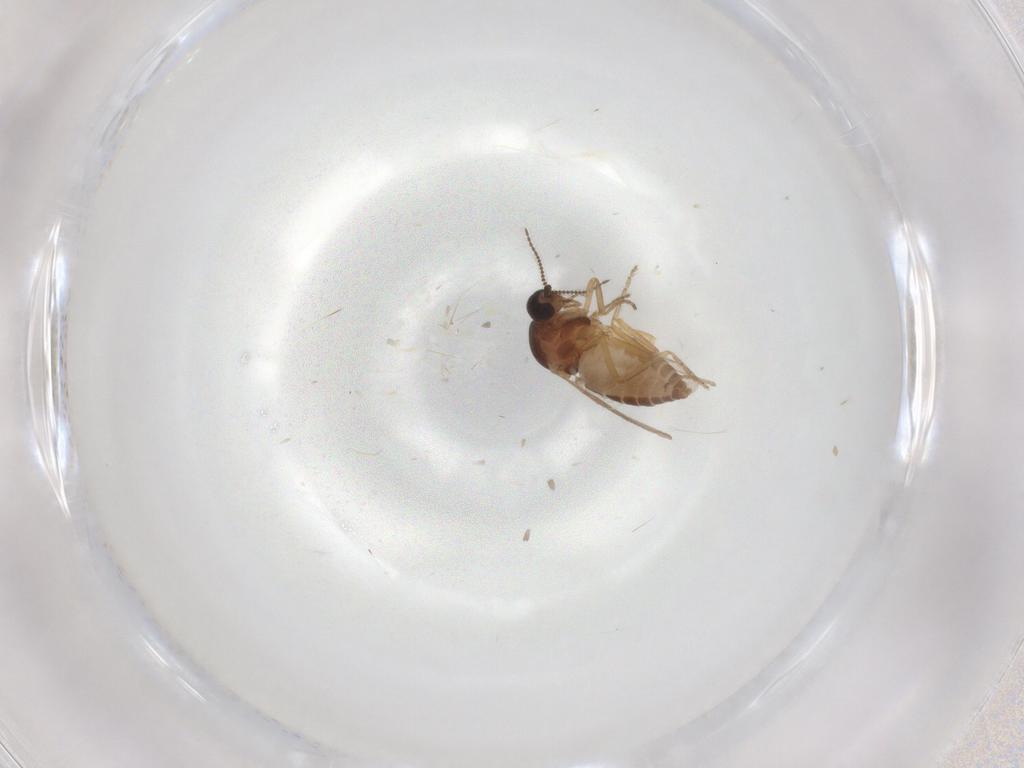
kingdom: Animalia
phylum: Arthropoda
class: Insecta
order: Diptera
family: Ceratopogonidae
